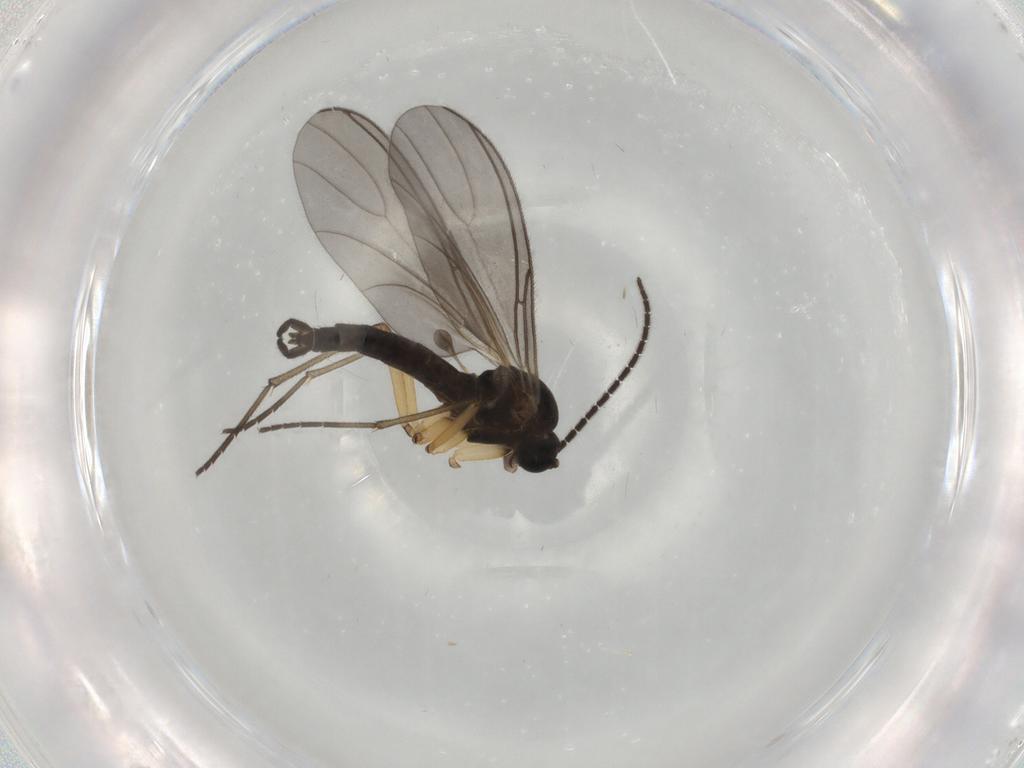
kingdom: Animalia
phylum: Arthropoda
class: Insecta
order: Diptera
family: Sciaridae
